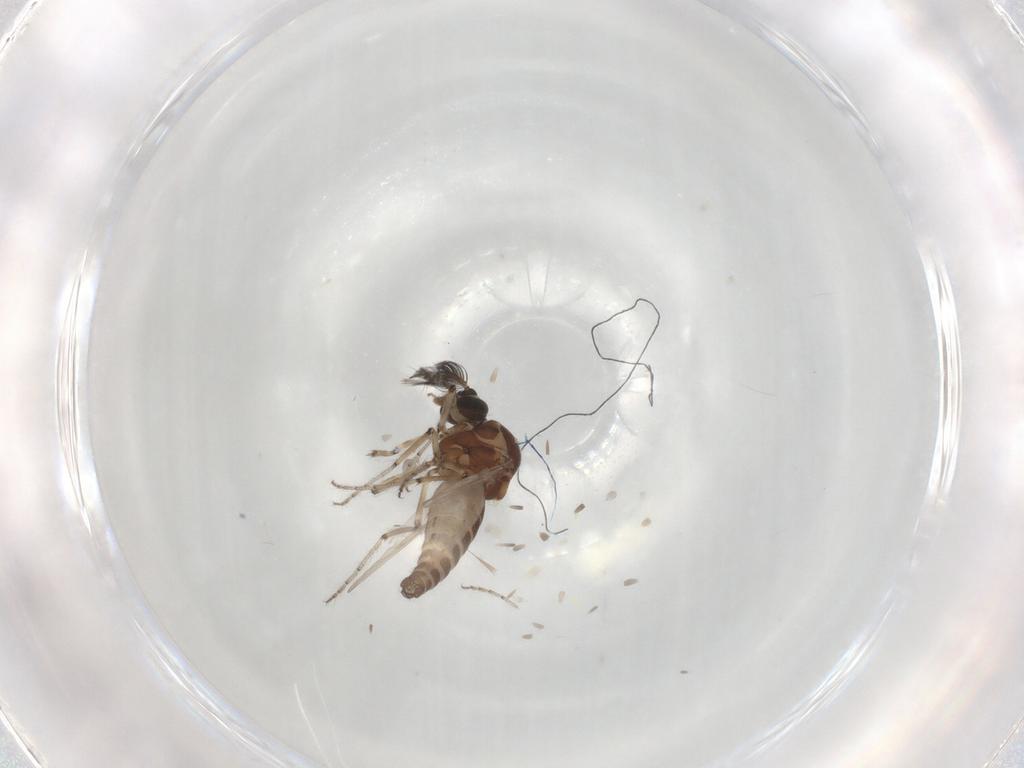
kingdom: Animalia
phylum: Arthropoda
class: Insecta
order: Diptera
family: Ceratopogonidae
